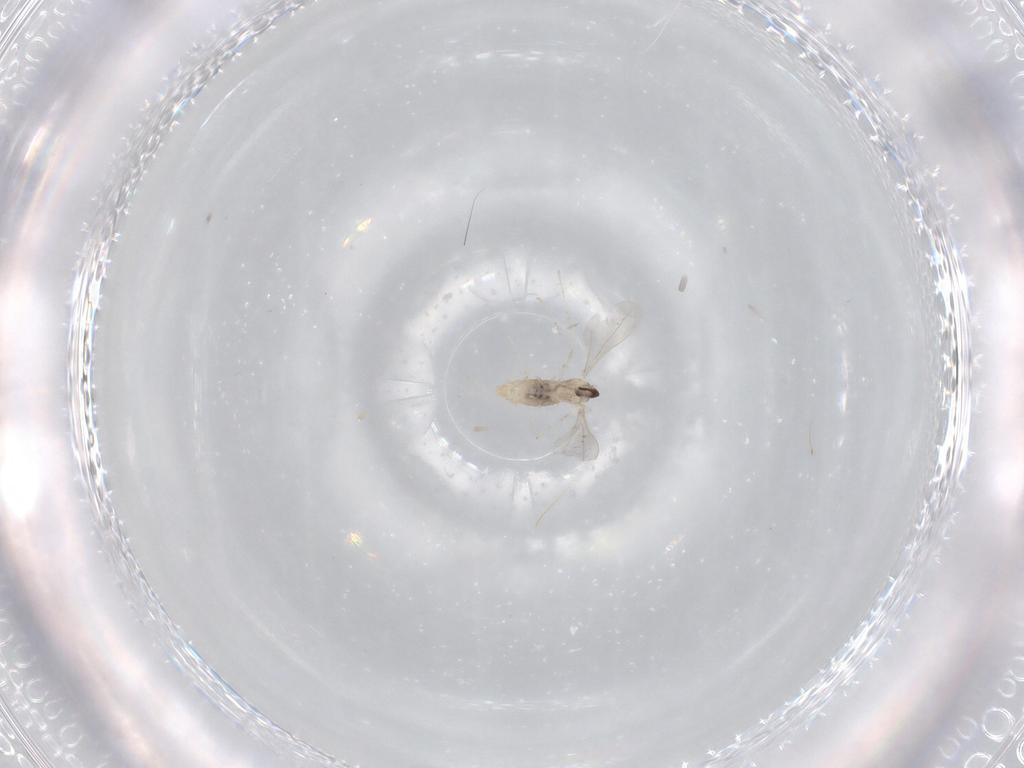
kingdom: Animalia
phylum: Arthropoda
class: Insecta
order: Diptera
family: Cecidomyiidae
